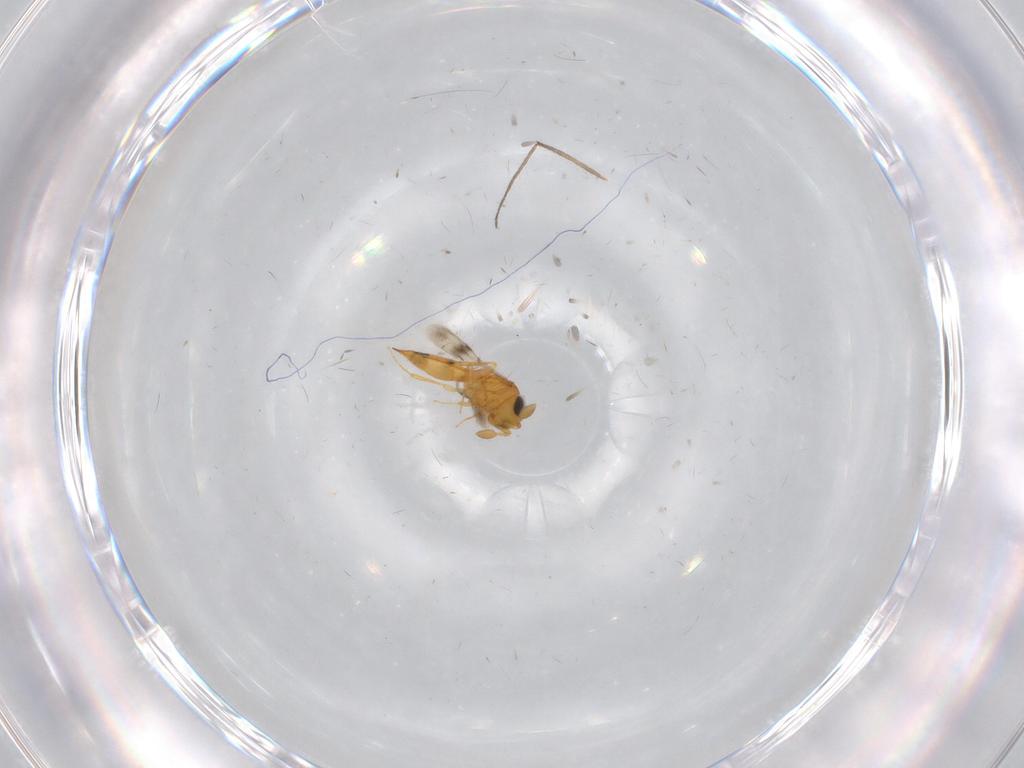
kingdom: Animalia
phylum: Arthropoda
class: Insecta
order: Hymenoptera
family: Scelionidae
